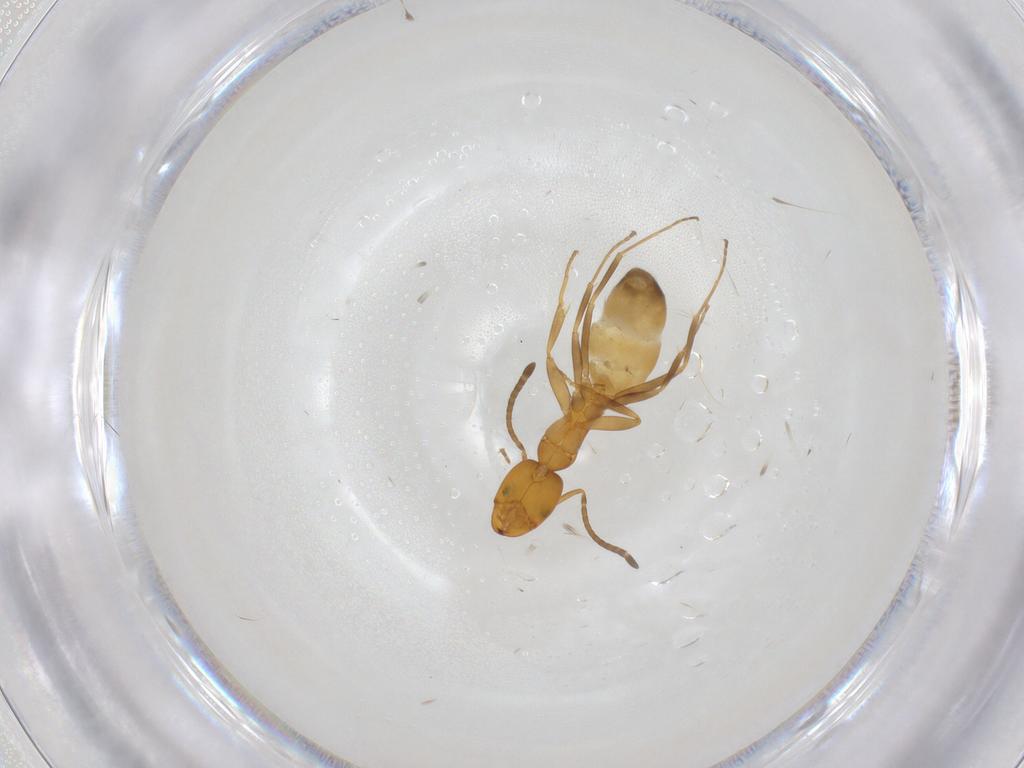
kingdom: Animalia
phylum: Arthropoda
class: Insecta
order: Hymenoptera
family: Formicidae
